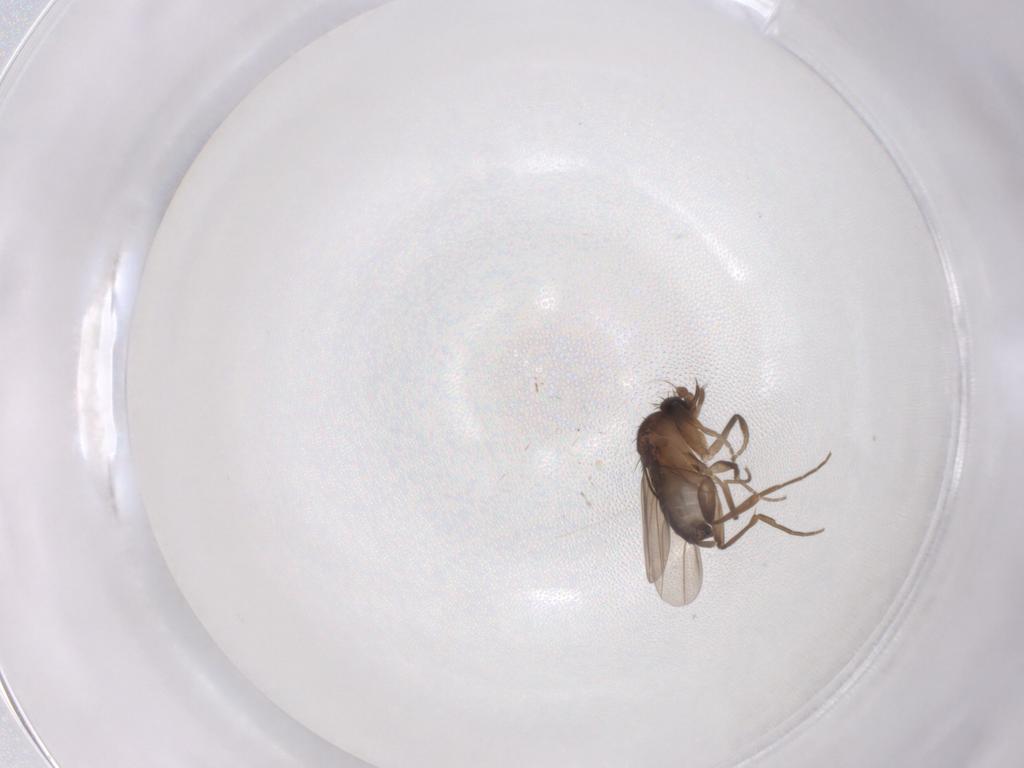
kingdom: Animalia
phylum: Arthropoda
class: Insecta
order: Diptera
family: Phoridae
